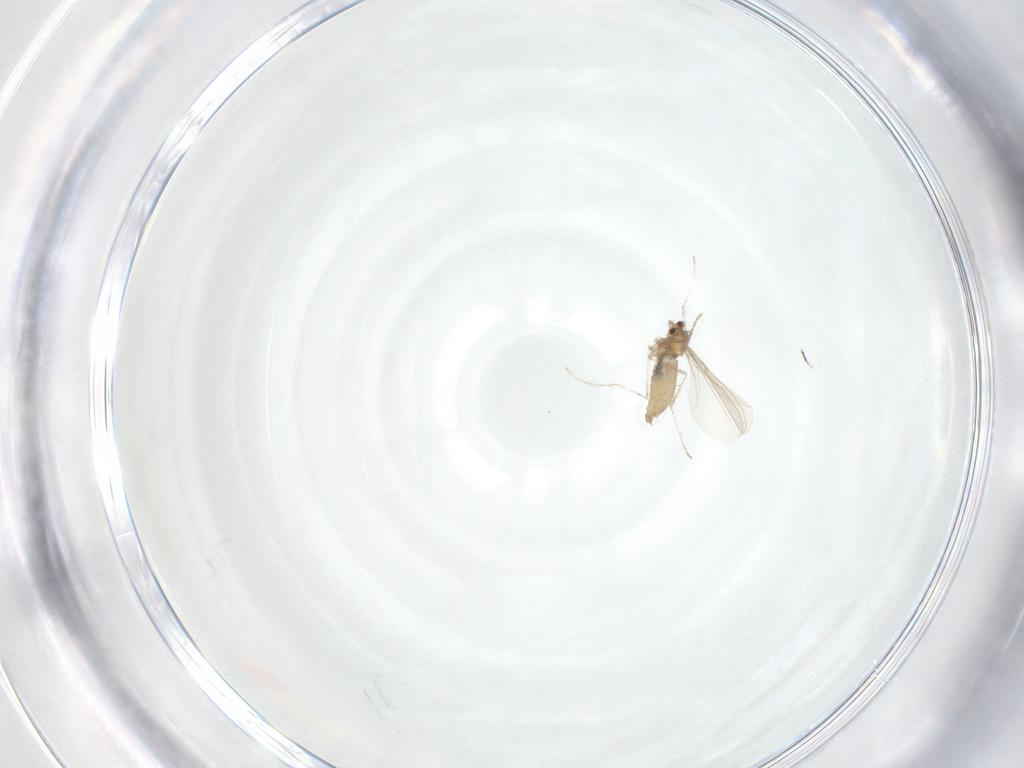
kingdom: Animalia
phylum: Arthropoda
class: Insecta
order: Diptera
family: Cecidomyiidae
